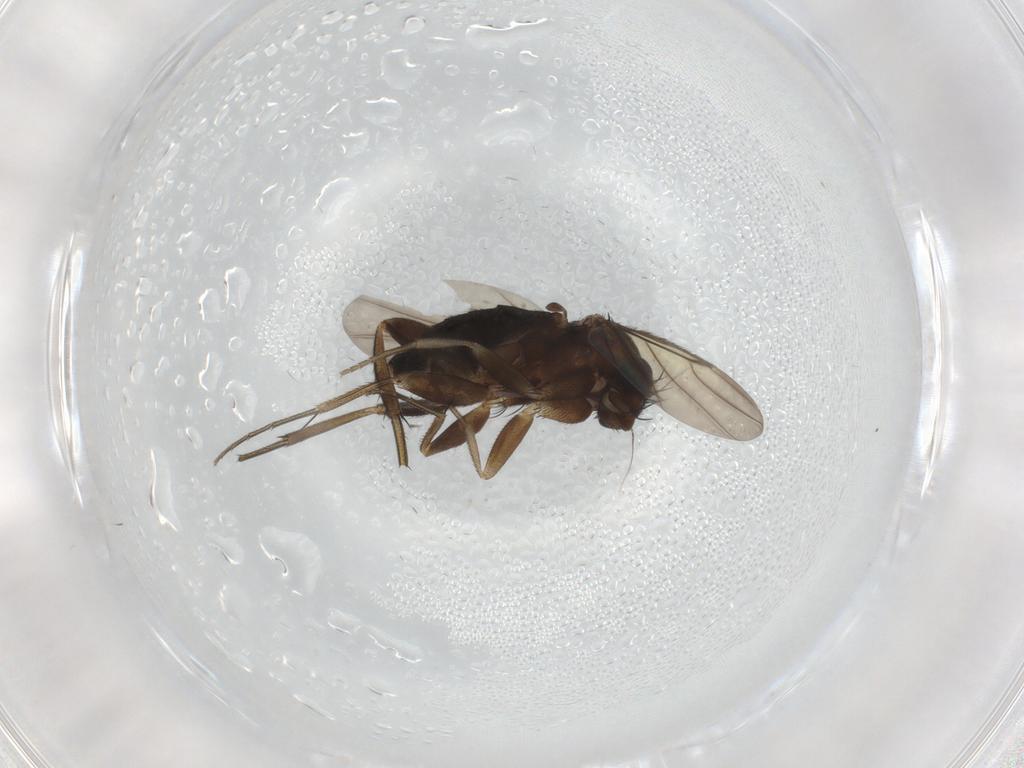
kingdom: Animalia
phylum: Arthropoda
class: Insecta
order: Diptera
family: Phoridae
